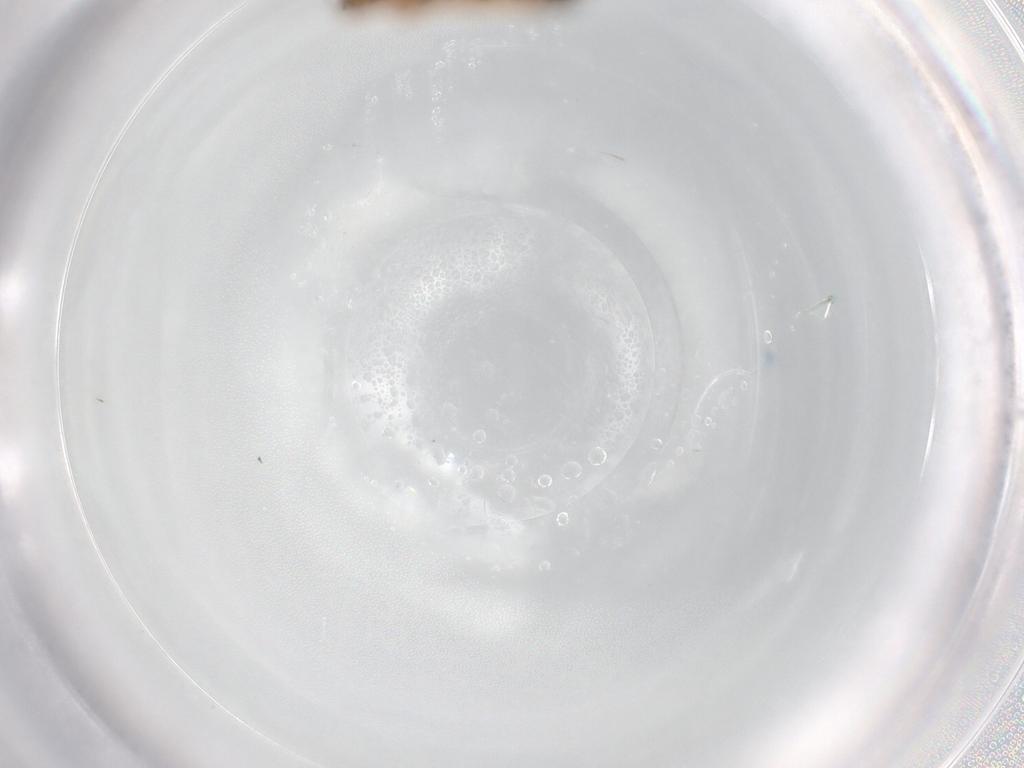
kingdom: Animalia
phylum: Arthropoda
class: Insecta
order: Hymenoptera
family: Formicidae
